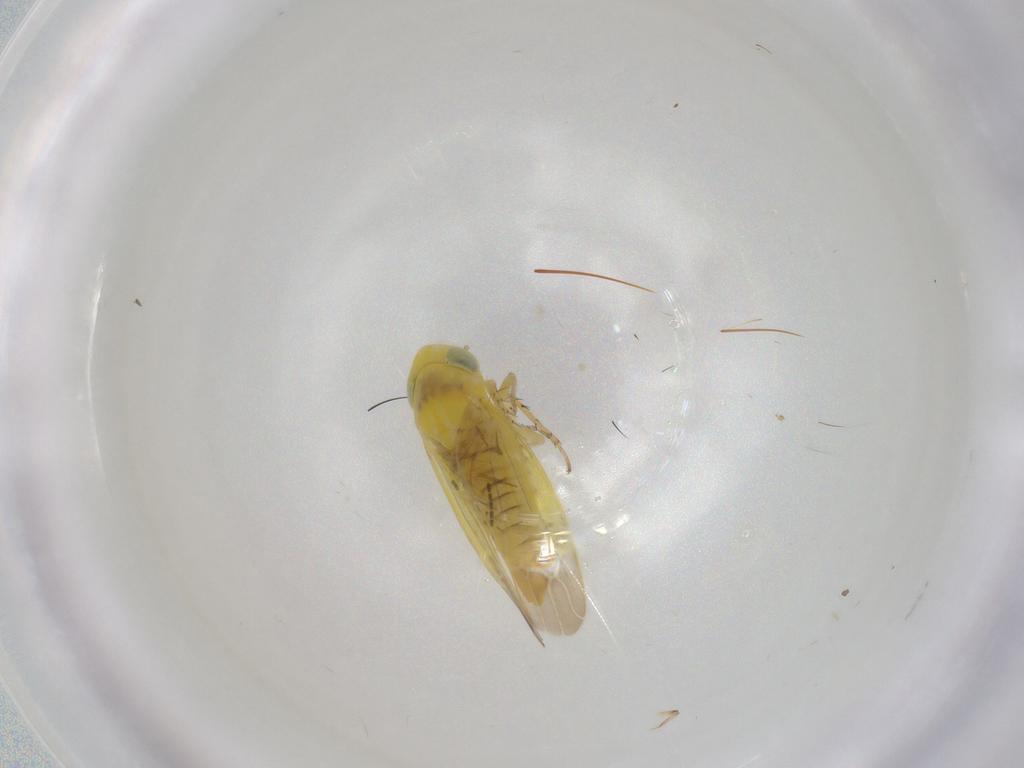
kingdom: Animalia
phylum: Arthropoda
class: Insecta
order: Hemiptera
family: Cicadellidae
